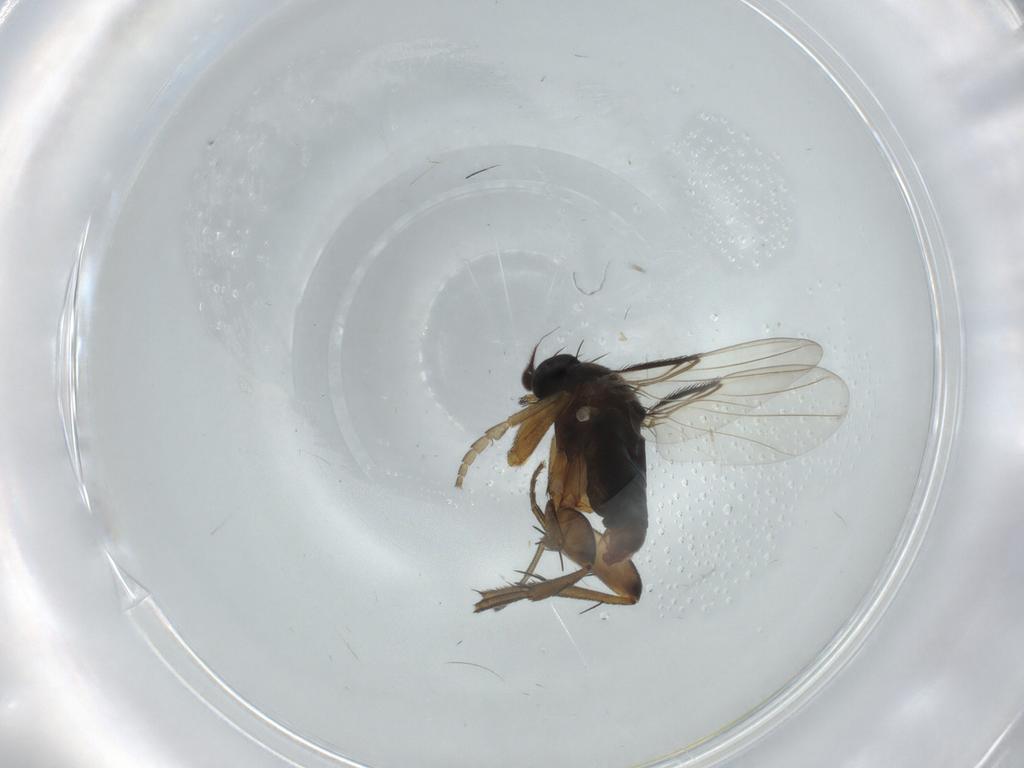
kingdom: Animalia
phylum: Arthropoda
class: Insecta
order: Diptera
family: Phoridae
